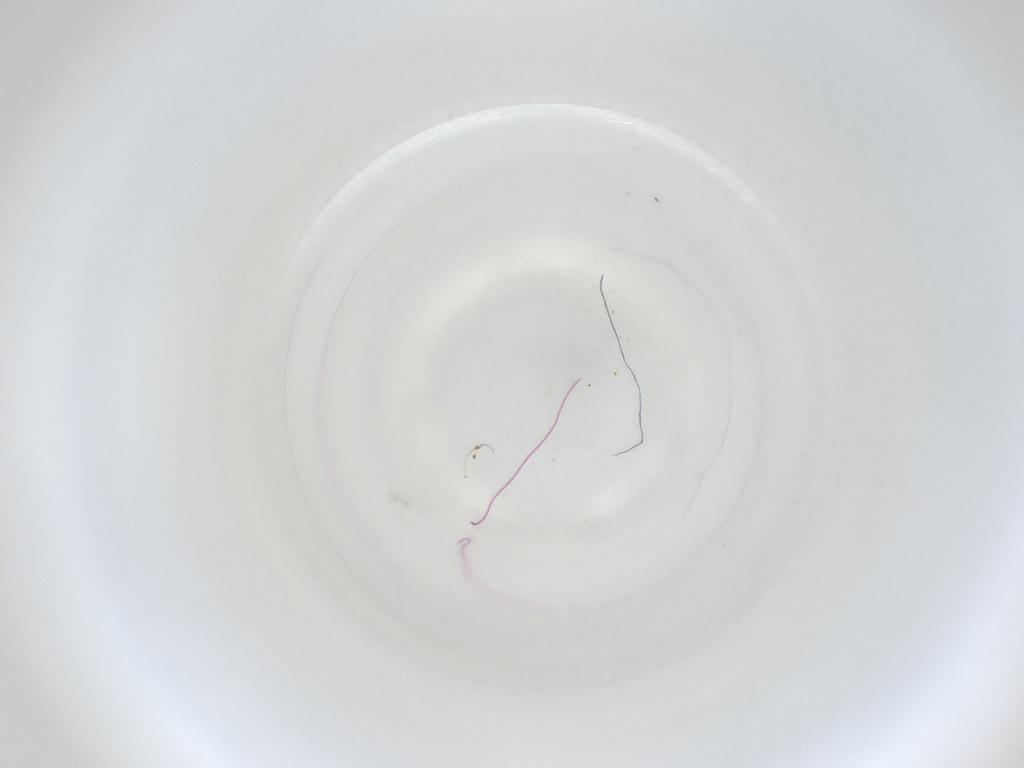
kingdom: Animalia
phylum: Arthropoda
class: Insecta
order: Diptera
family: Cecidomyiidae
